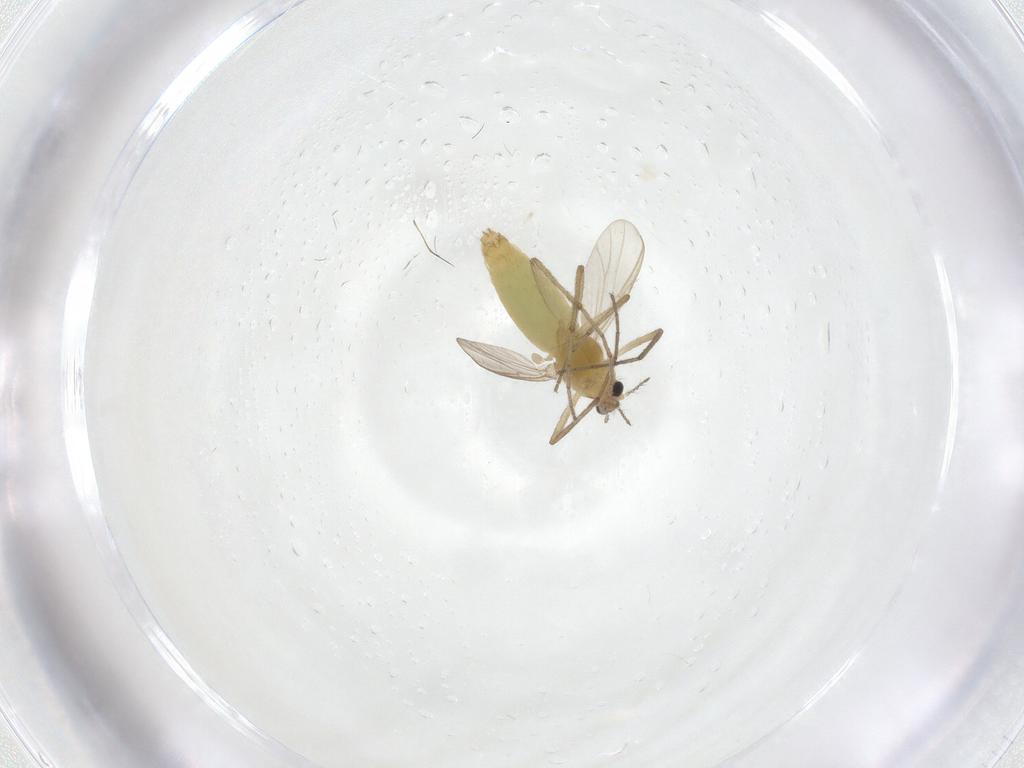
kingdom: Animalia
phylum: Arthropoda
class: Insecta
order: Diptera
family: Chironomidae
